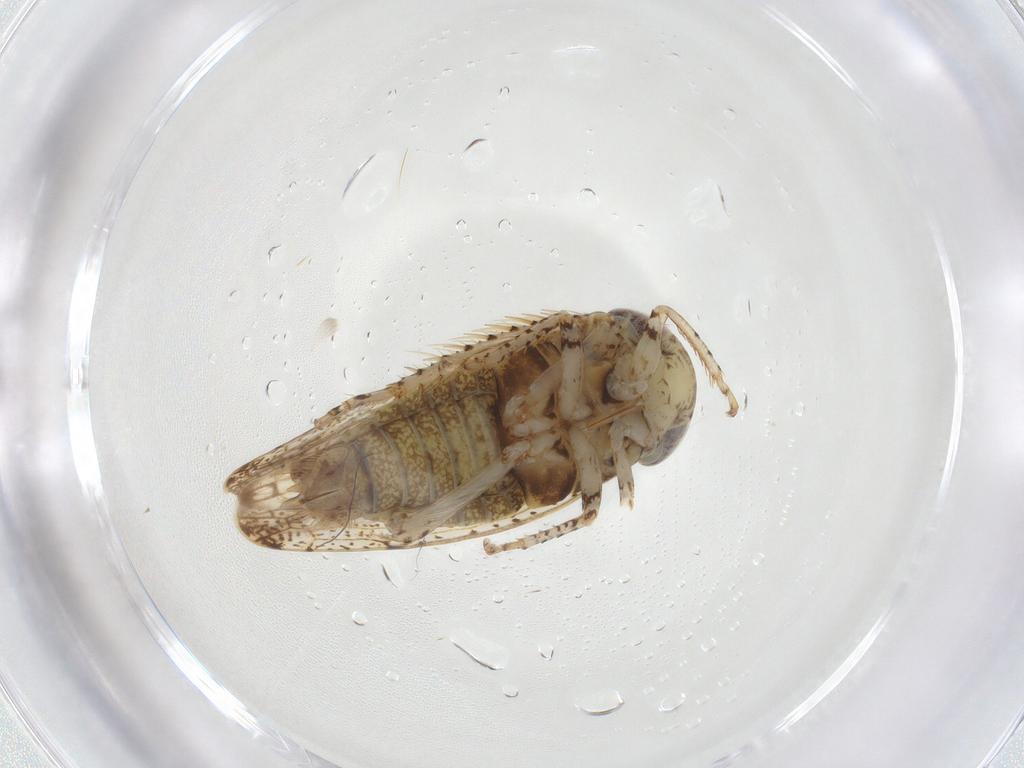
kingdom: Animalia
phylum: Arthropoda
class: Insecta
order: Hemiptera
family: Cicadellidae
